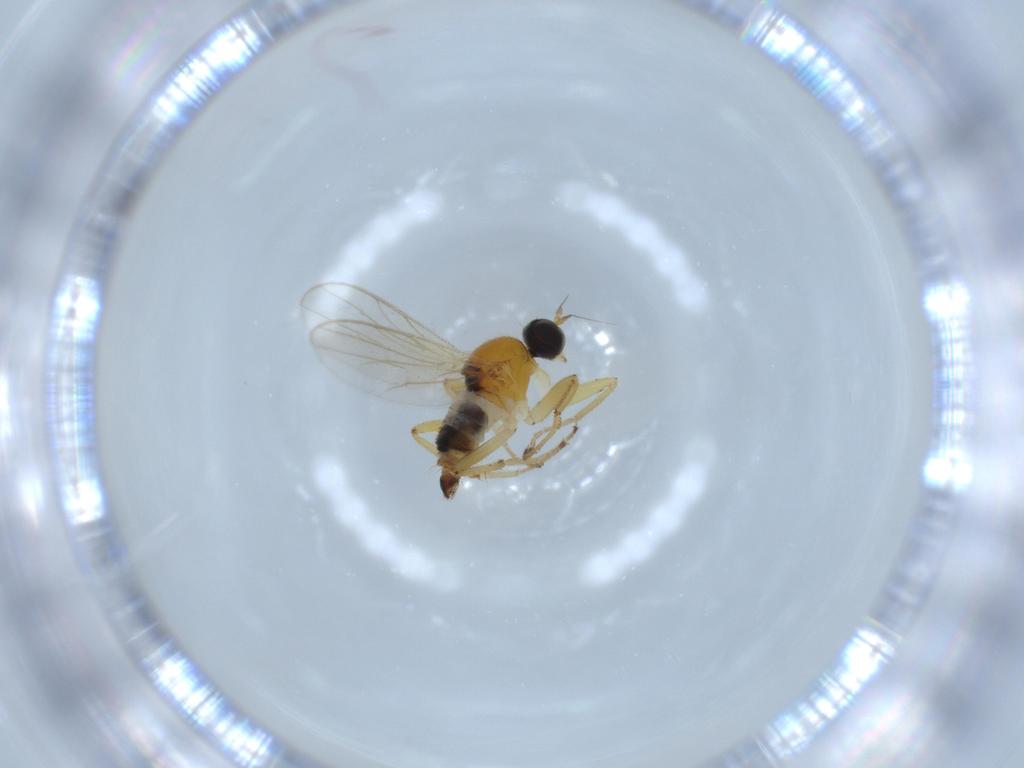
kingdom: Animalia
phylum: Arthropoda
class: Insecta
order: Diptera
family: Hybotidae
